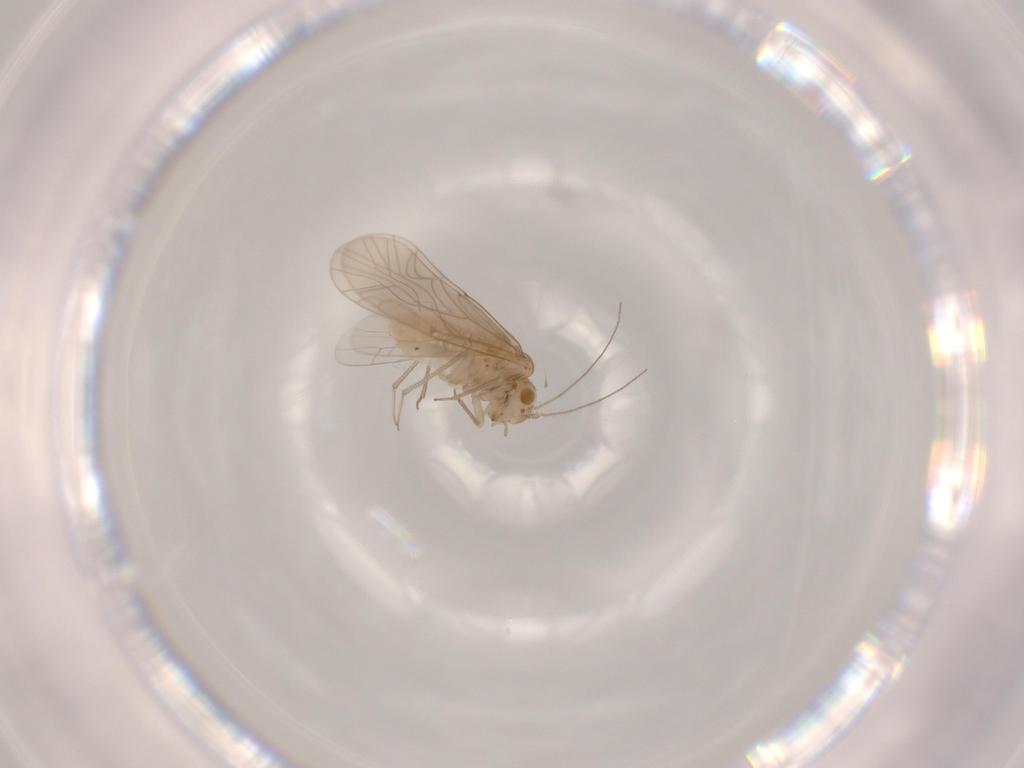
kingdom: Animalia
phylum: Arthropoda
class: Insecta
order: Psocodea
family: Lachesillidae
